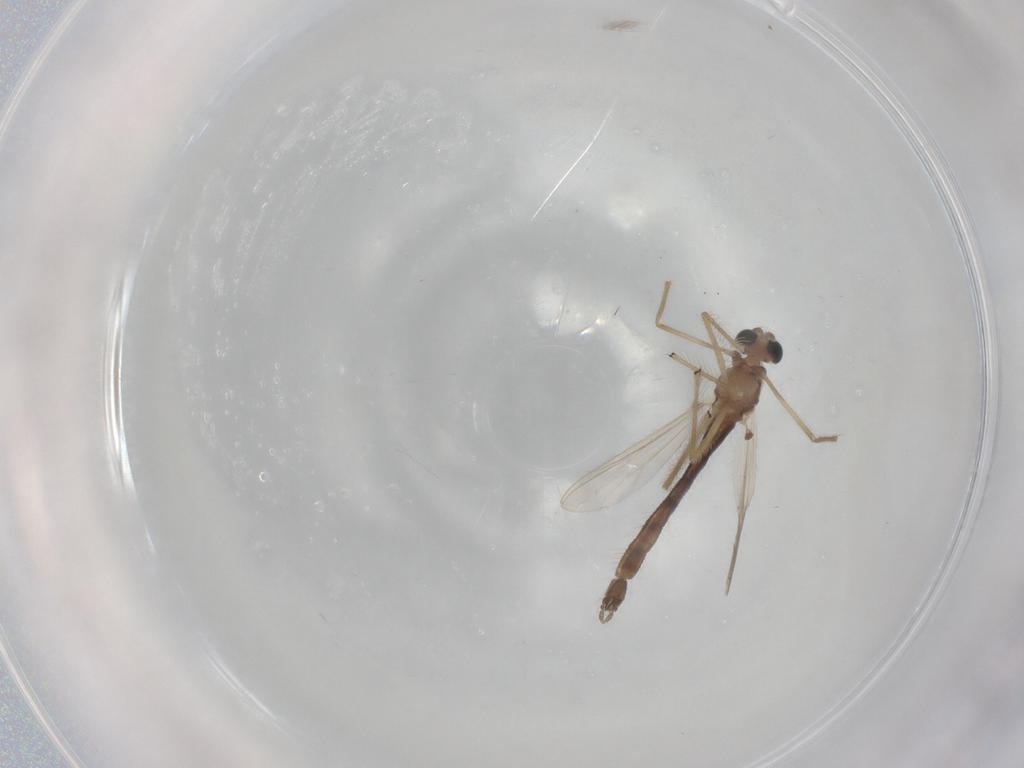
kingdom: Animalia
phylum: Arthropoda
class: Insecta
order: Diptera
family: Chironomidae
